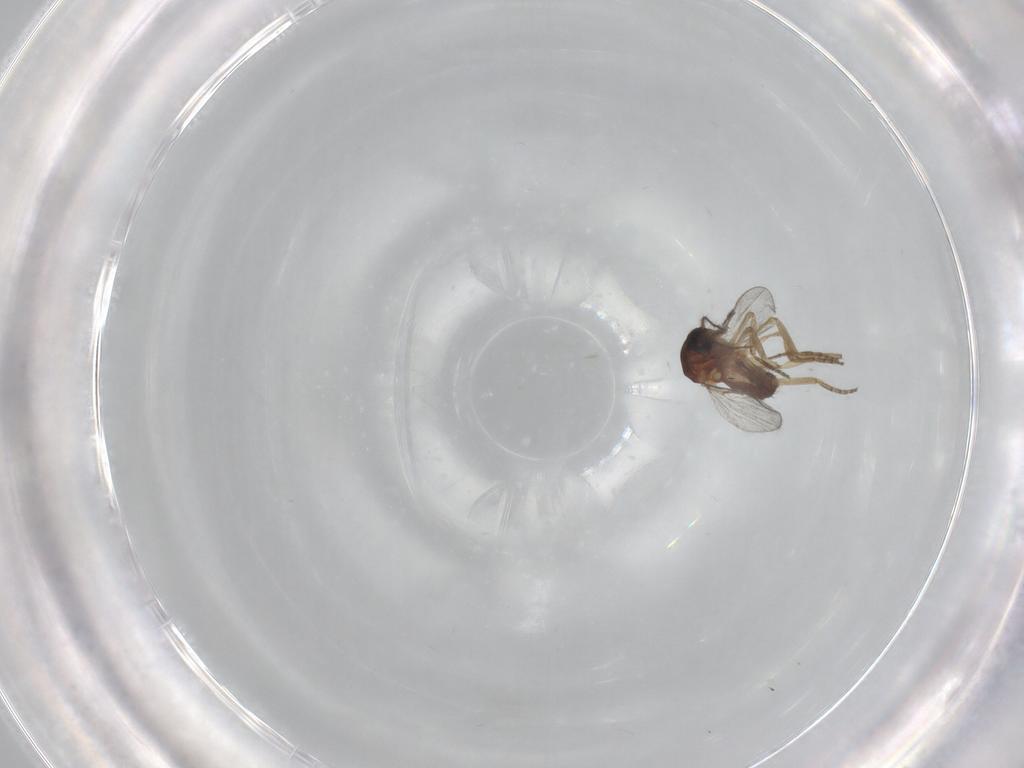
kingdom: Animalia
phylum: Arthropoda
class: Insecta
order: Diptera
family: Ceratopogonidae
